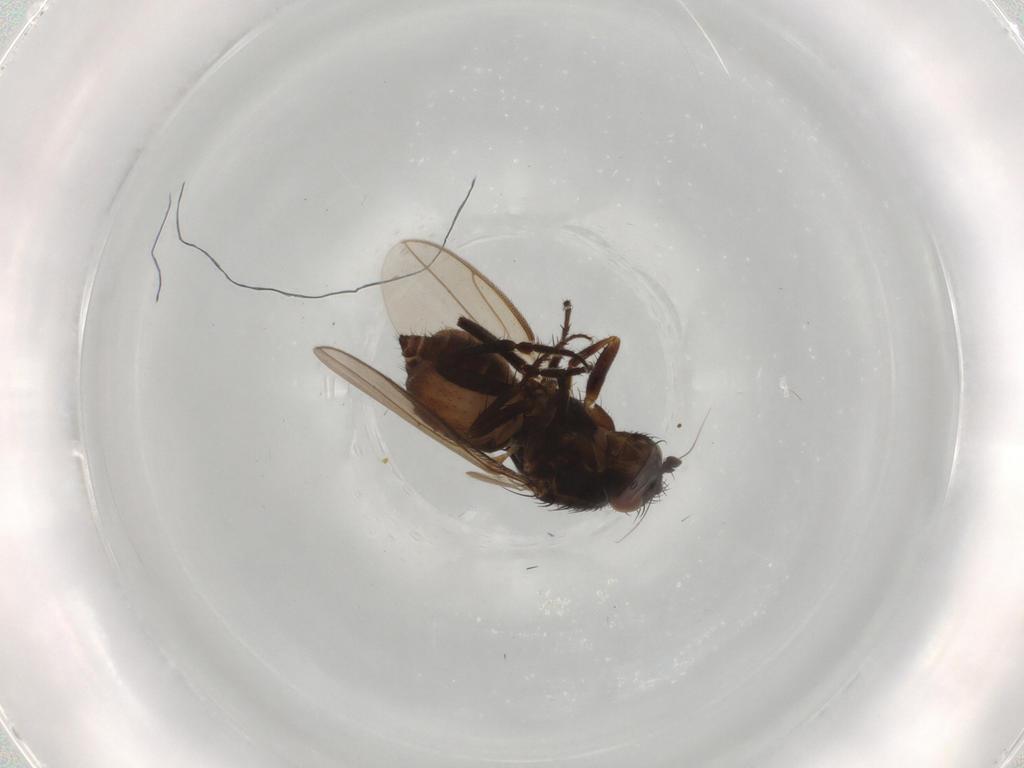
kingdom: Animalia
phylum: Arthropoda
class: Insecta
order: Diptera
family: Sphaeroceridae
